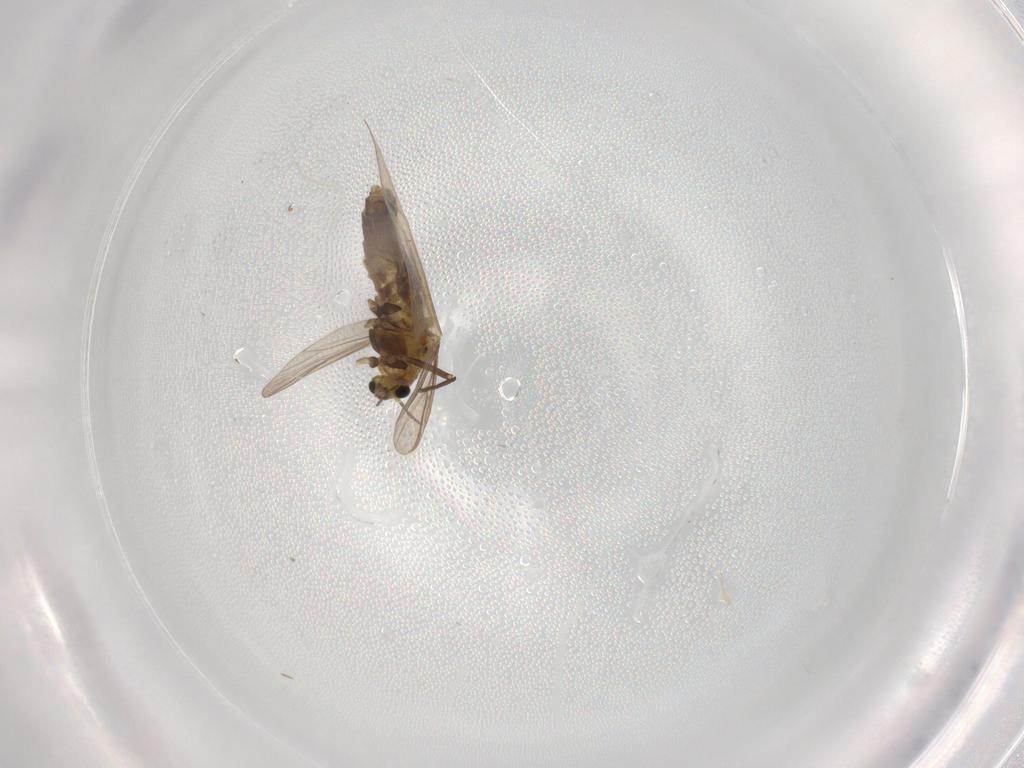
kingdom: Animalia
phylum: Arthropoda
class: Insecta
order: Diptera
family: Chironomidae
